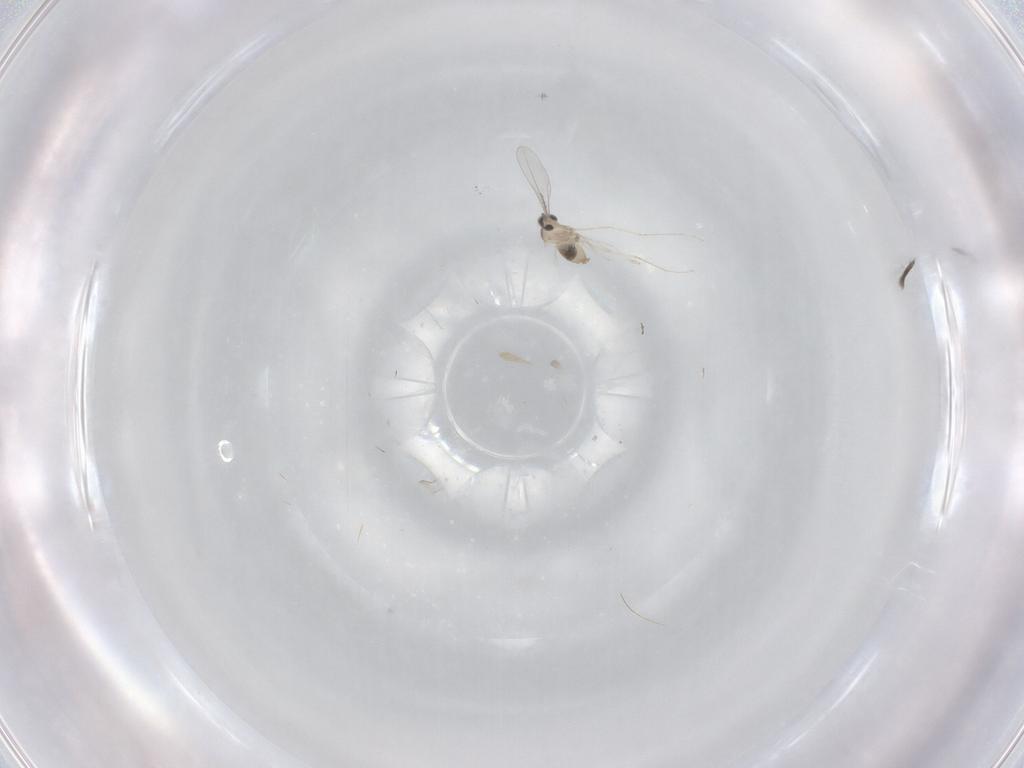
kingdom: Animalia
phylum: Arthropoda
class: Insecta
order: Diptera
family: Cecidomyiidae
